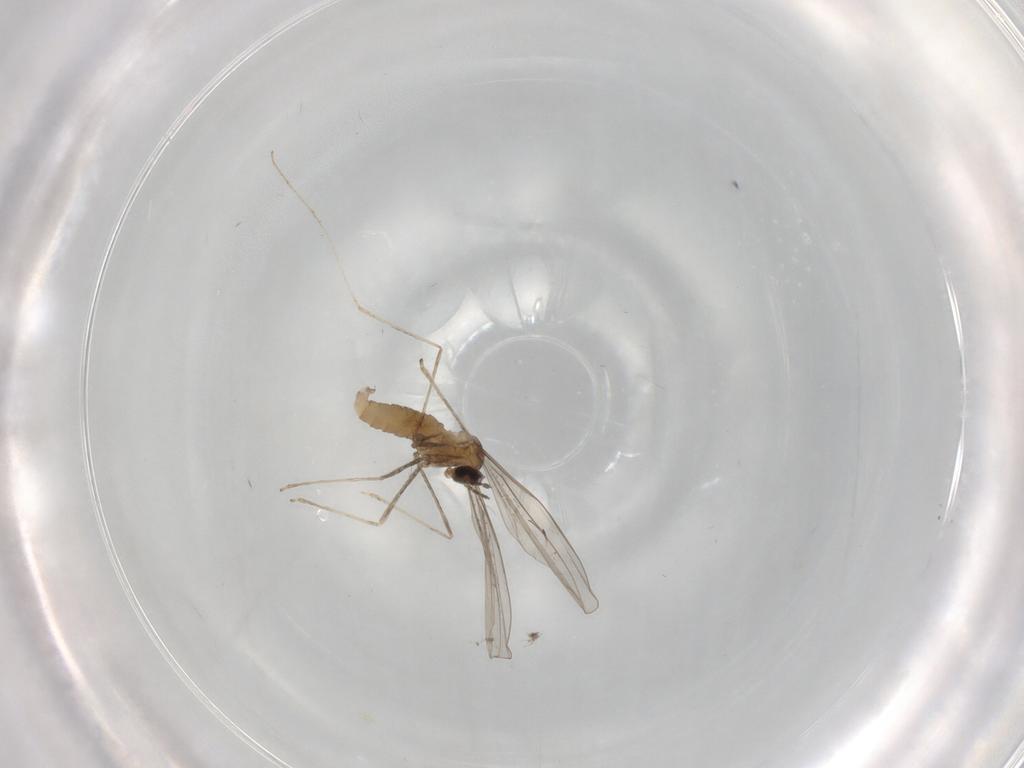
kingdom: Animalia
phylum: Arthropoda
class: Insecta
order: Diptera
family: Cecidomyiidae
